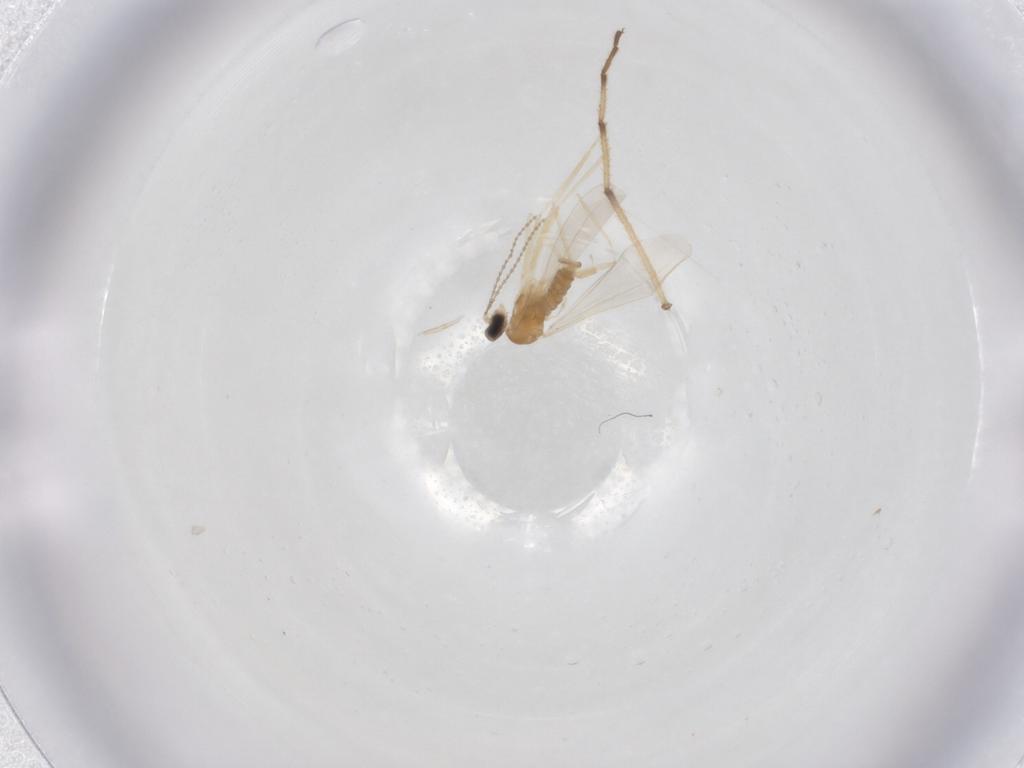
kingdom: Animalia
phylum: Arthropoda
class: Insecta
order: Diptera
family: Cecidomyiidae
